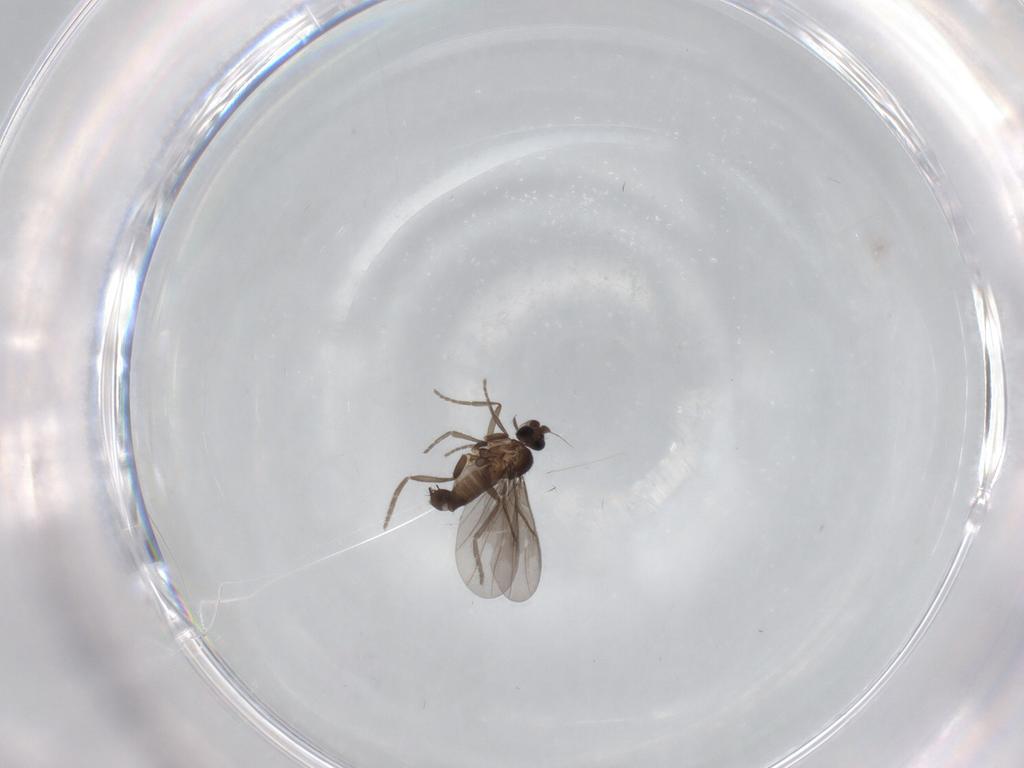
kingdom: Animalia
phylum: Arthropoda
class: Insecta
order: Diptera
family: Phoridae
